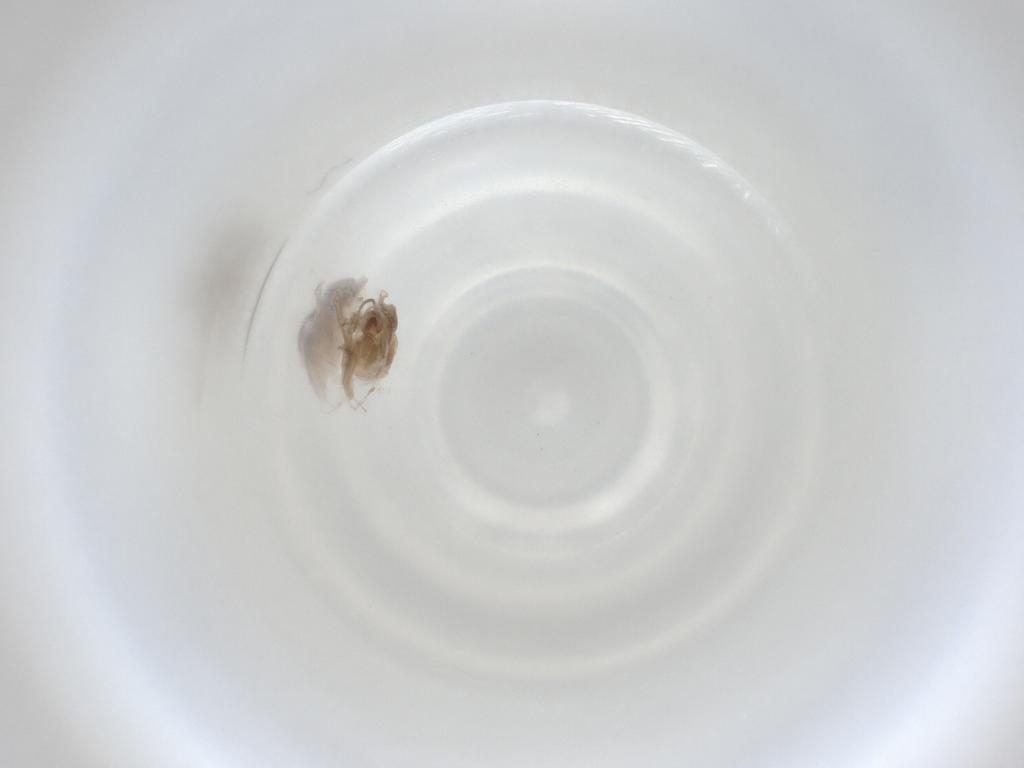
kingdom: Animalia
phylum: Arthropoda
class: Insecta
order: Diptera
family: Cecidomyiidae
